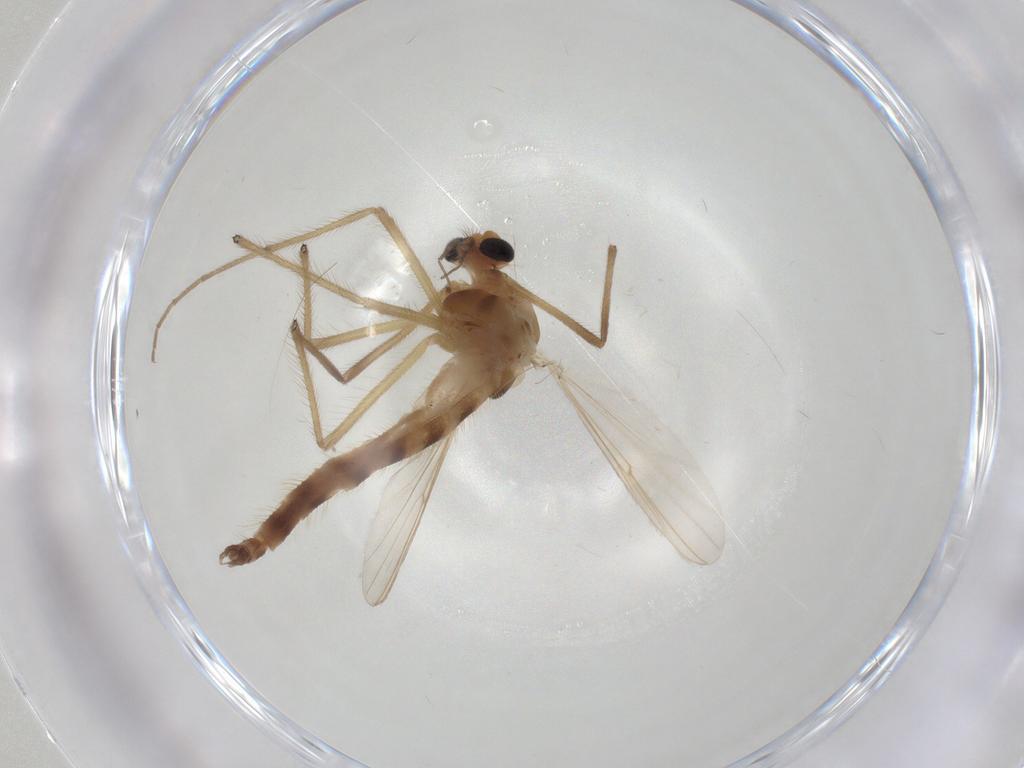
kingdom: Animalia
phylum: Arthropoda
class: Insecta
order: Diptera
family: Chironomidae
